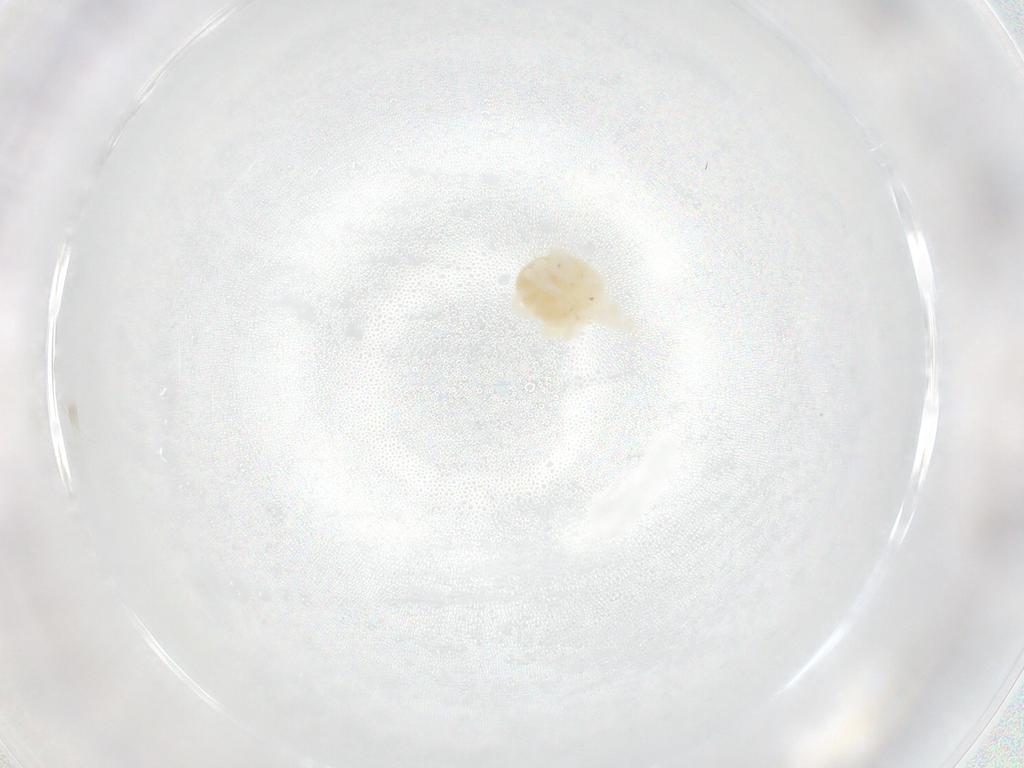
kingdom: Animalia
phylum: Arthropoda
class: Arachnida
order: Trombidiformes
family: Anystidae
